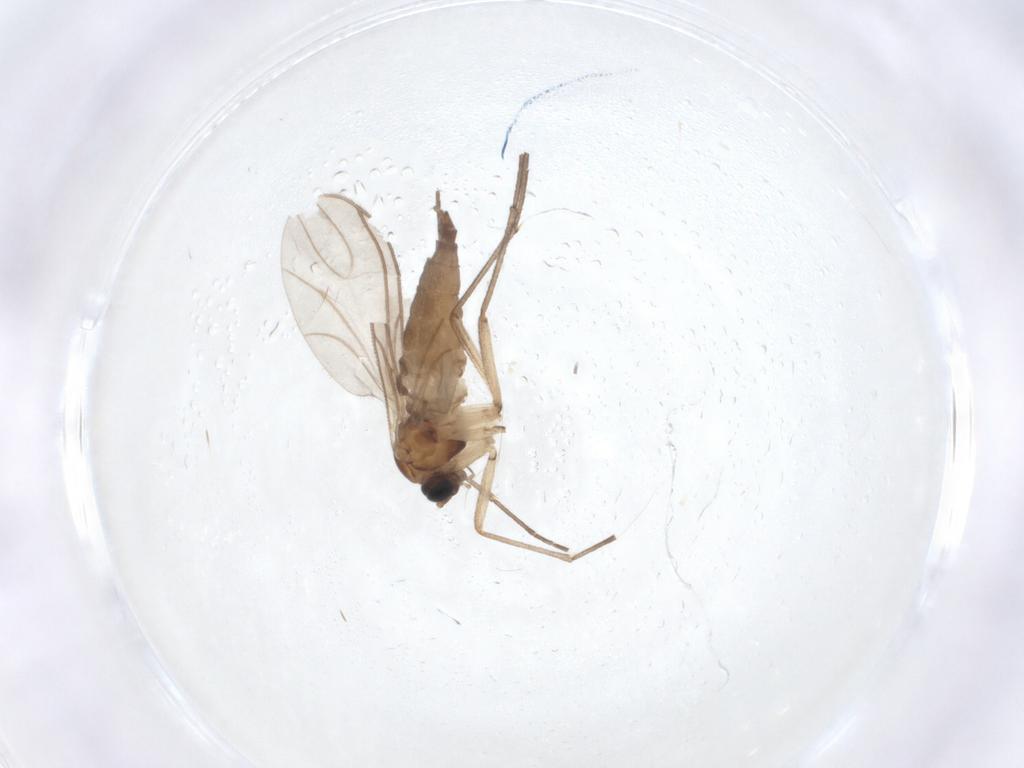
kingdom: Animalia
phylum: Arthropoda
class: Insecta
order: Diptera
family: Sciaridae
